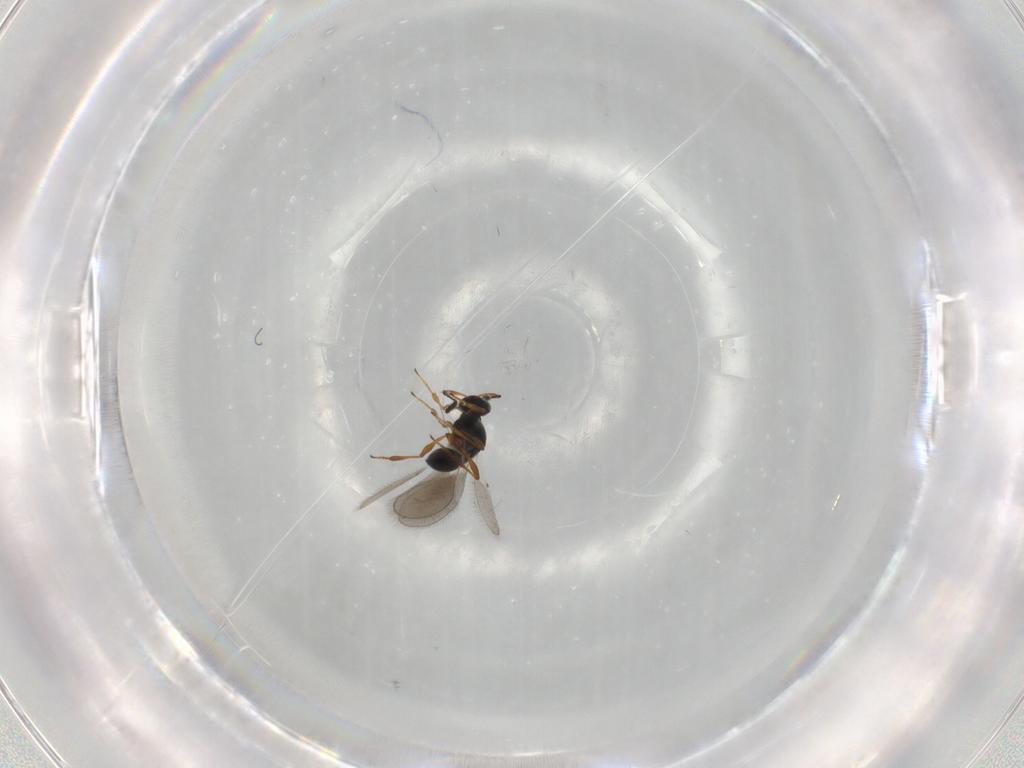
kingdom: Animalia
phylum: Arthropoda
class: Insecta
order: Hymenoptera
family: Platygastridae
